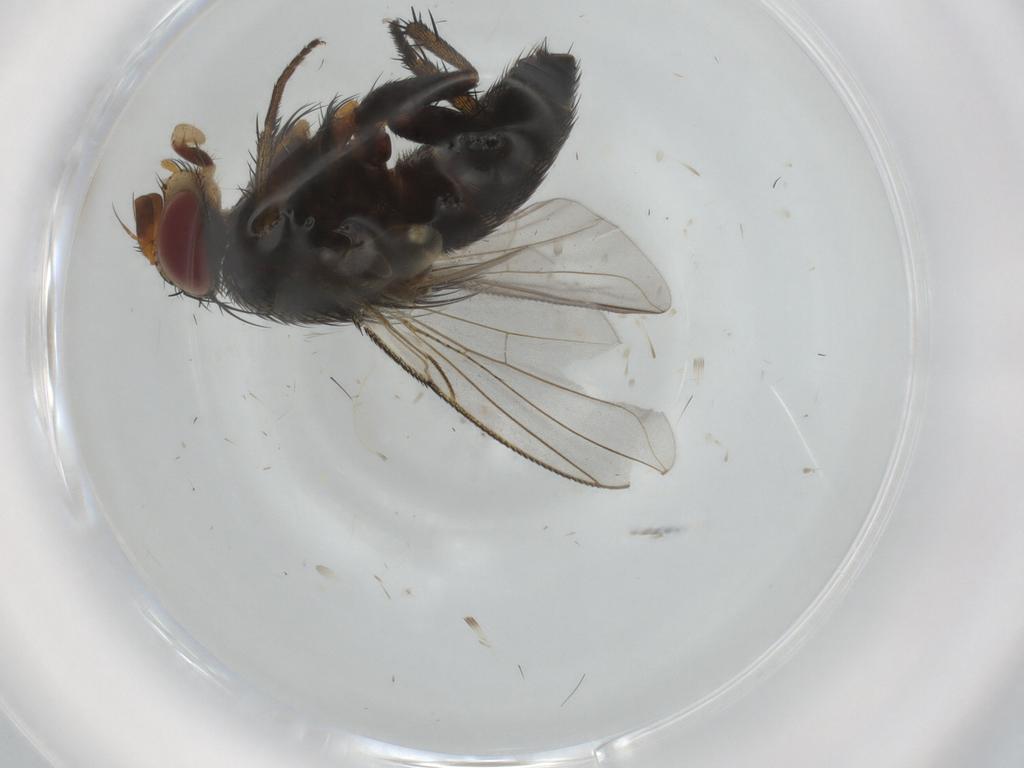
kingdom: Animalia
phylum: Arthropoda
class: Insecta
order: Diptera
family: Tachinidae
